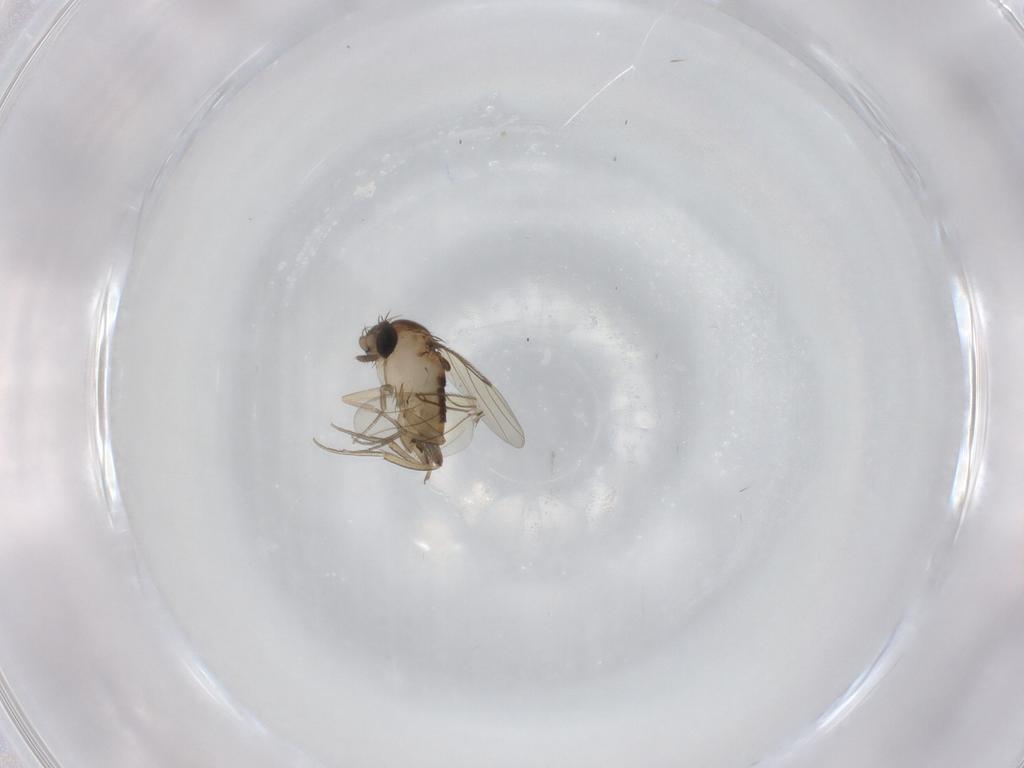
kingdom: Animalia
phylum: Arthropoda
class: Insecta
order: Diptera
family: Phoridae
